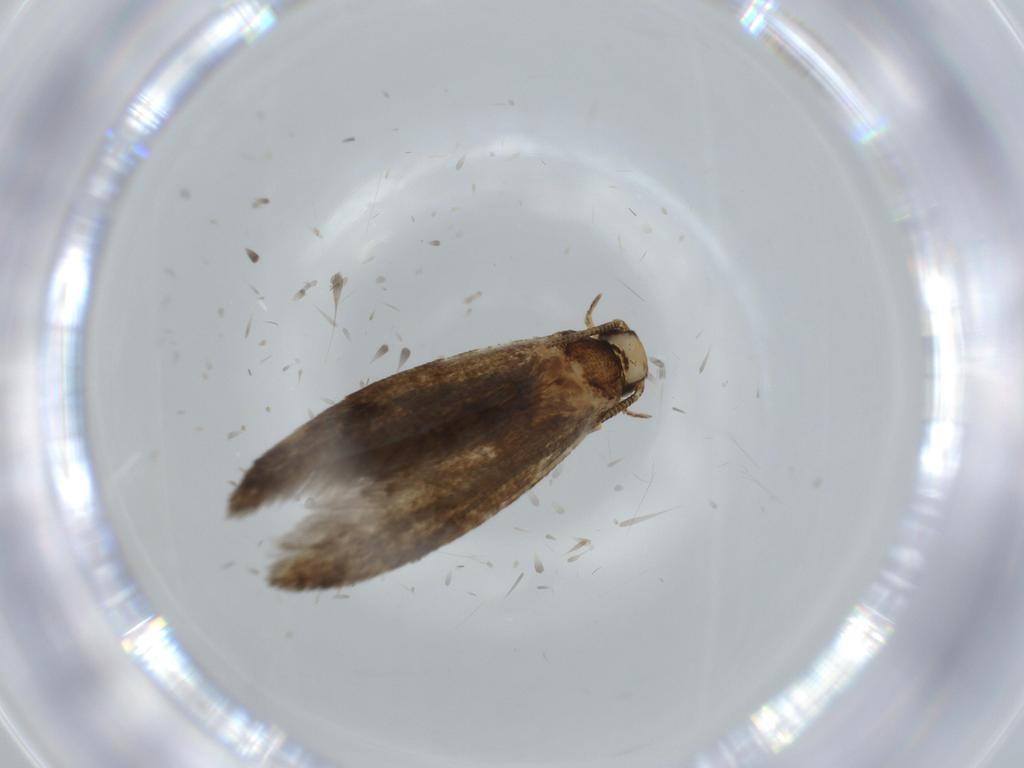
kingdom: Animalia
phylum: Arthropoda
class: Insecta
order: Lepidoptera
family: Tineidae
